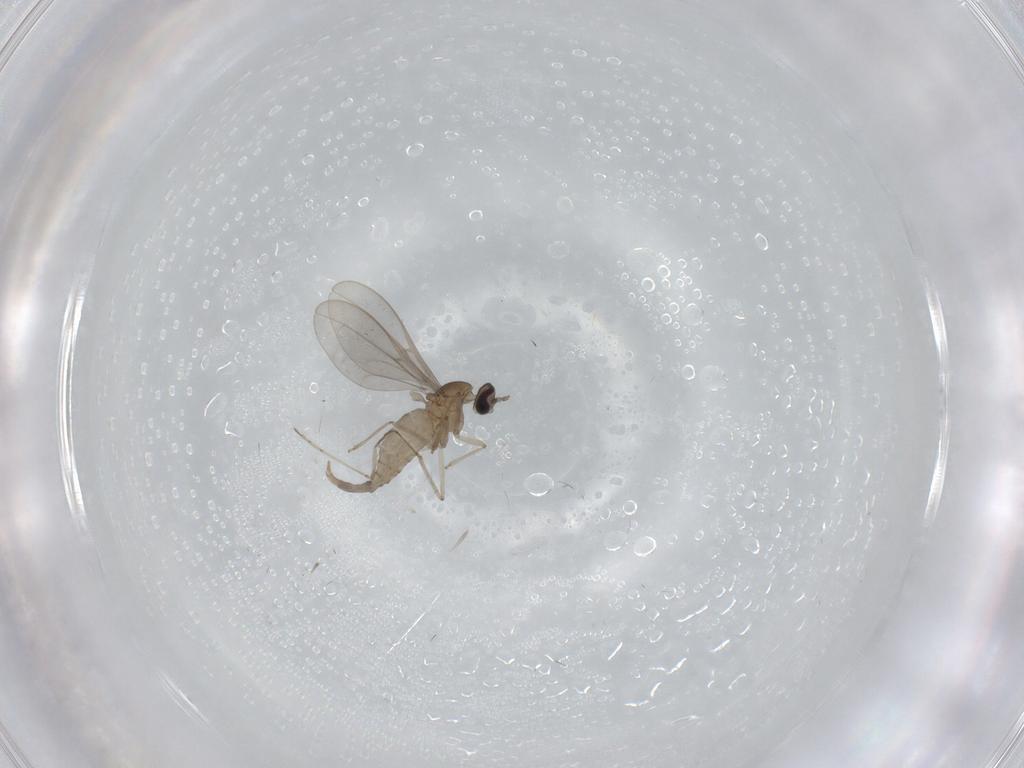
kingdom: Animalia
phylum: Arthropoda
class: Insecta
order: Diptera
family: Cecidomyiidae
